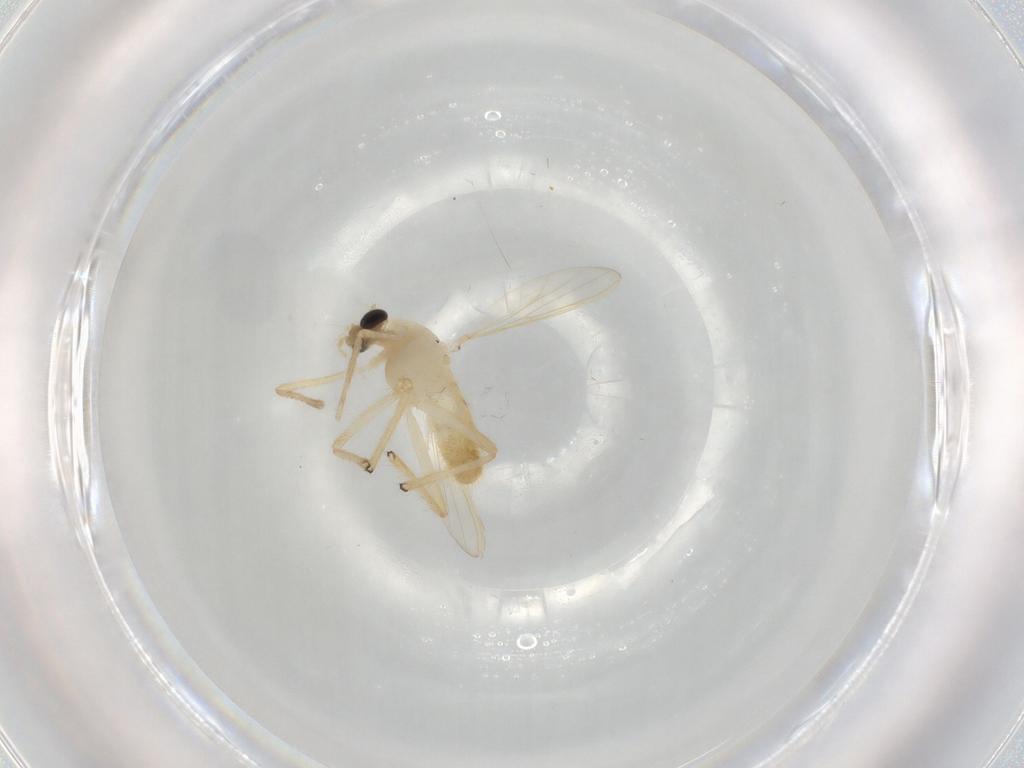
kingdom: Animalia
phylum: Arthropoda
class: Insecta
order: Diptera
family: Chironomidae
